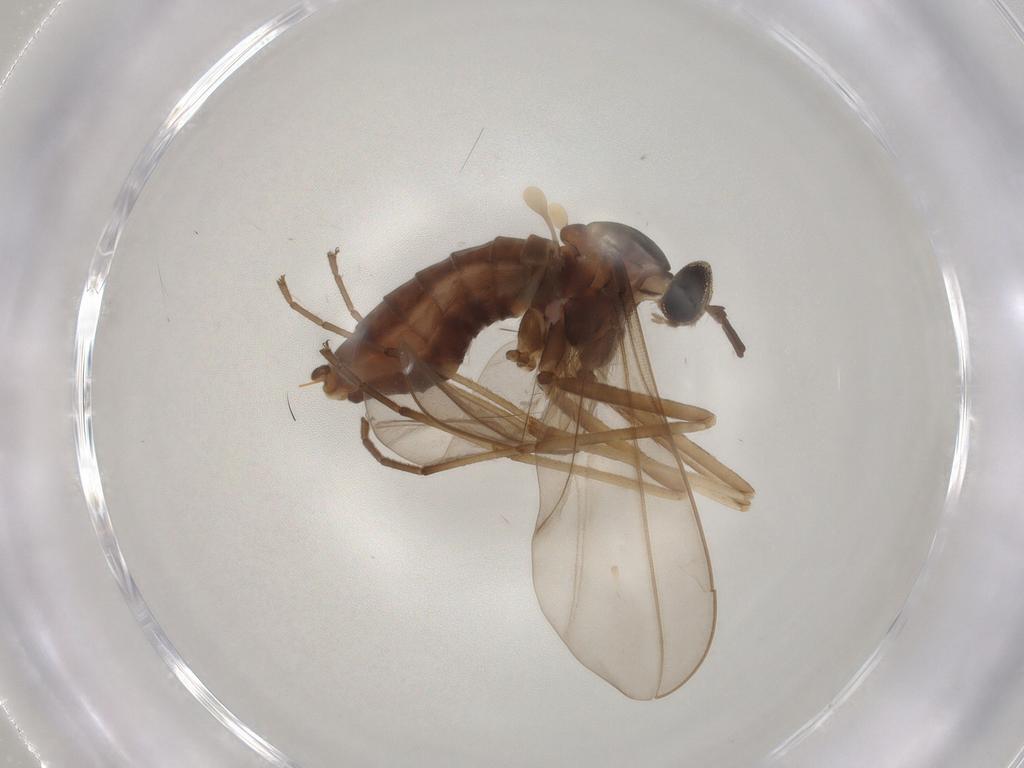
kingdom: Animalia
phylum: Arthropoda
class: Insecta
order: Diptera
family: Cecidomyiidae
